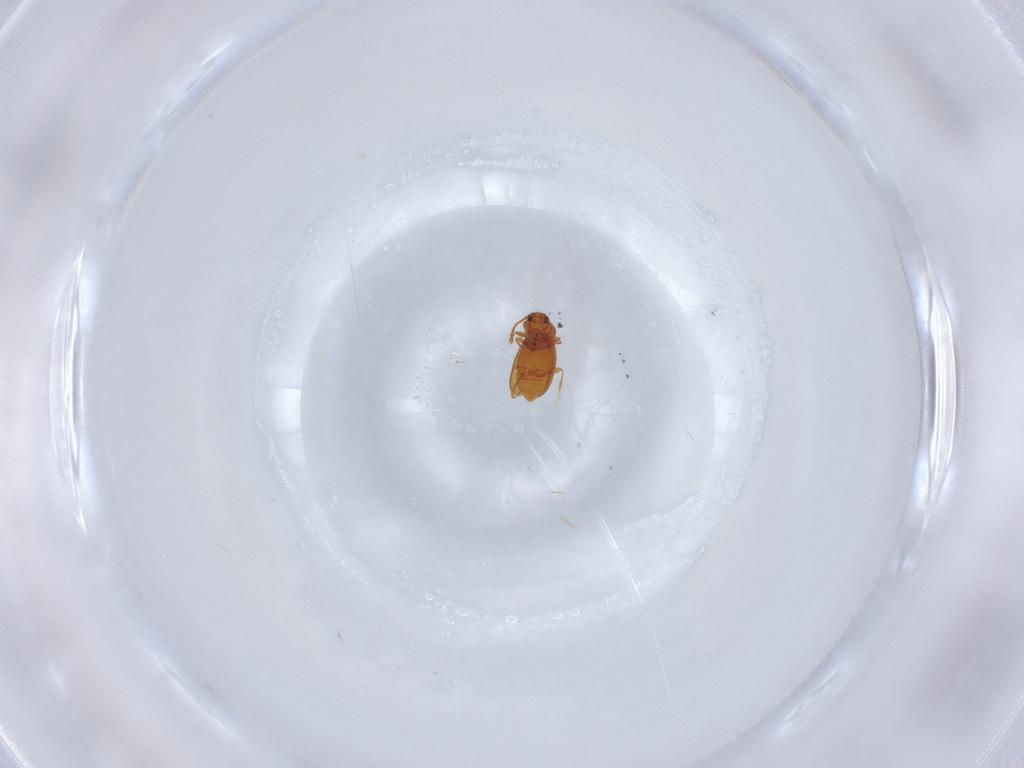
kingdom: Animalia
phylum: Arthropoda
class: Insecta
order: Coleoptera
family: Staphylinidae
